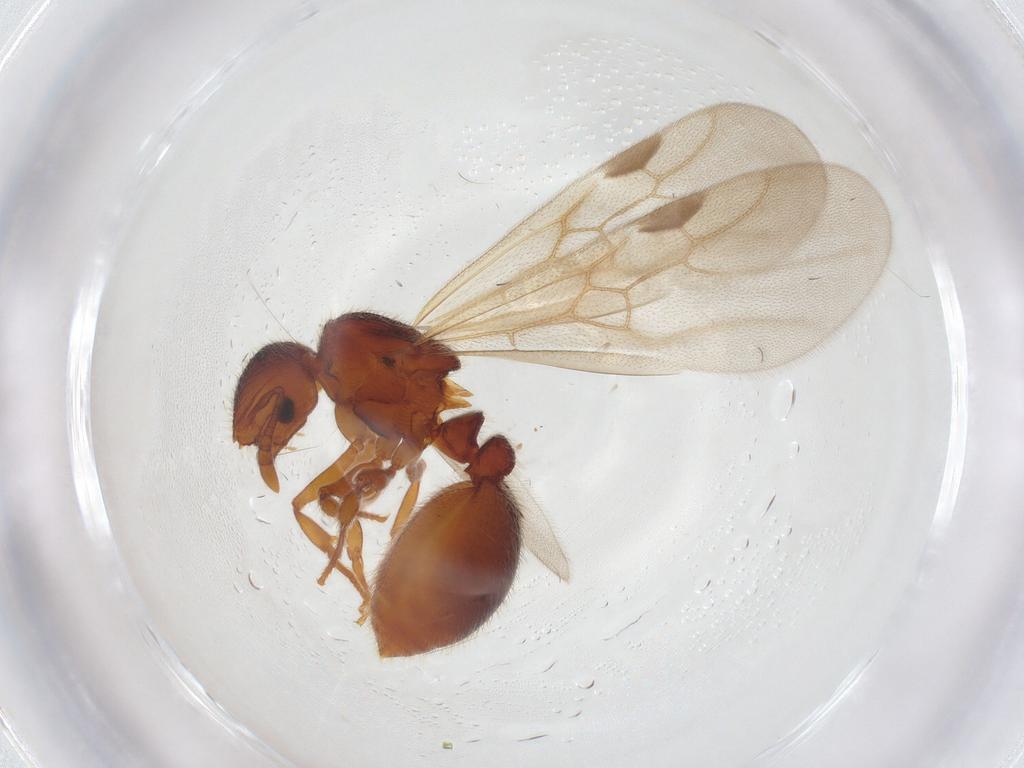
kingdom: Animalia
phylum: Arthropoda
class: Insecta
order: Hymenoptera
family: Formicidae
